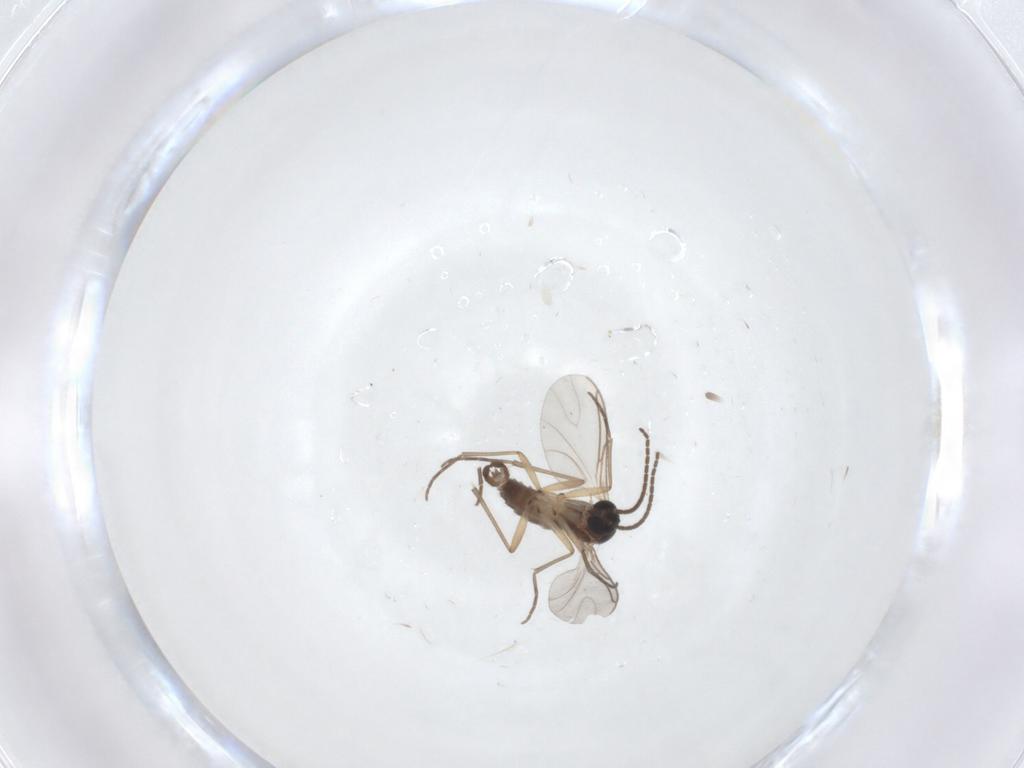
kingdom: Animalia
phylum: Arthropoda
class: Insecta
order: Diptera
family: Sciaridae
